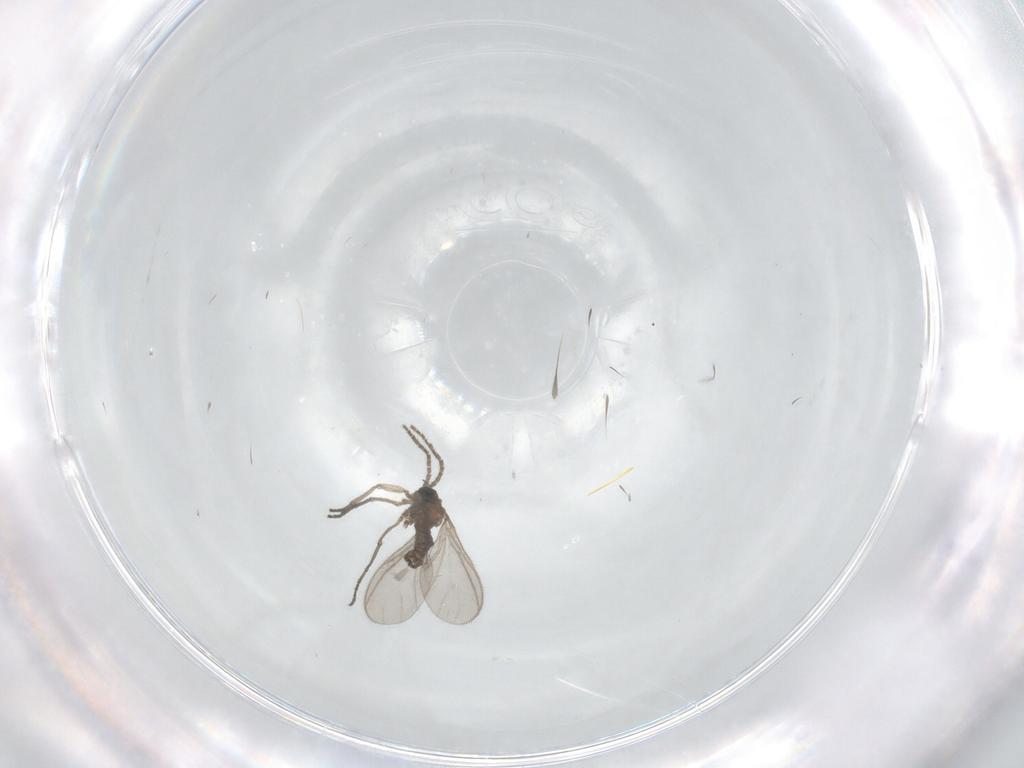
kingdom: Animalia
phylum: Arthropoda
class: Insecta
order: Diptera
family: Sciaridae
